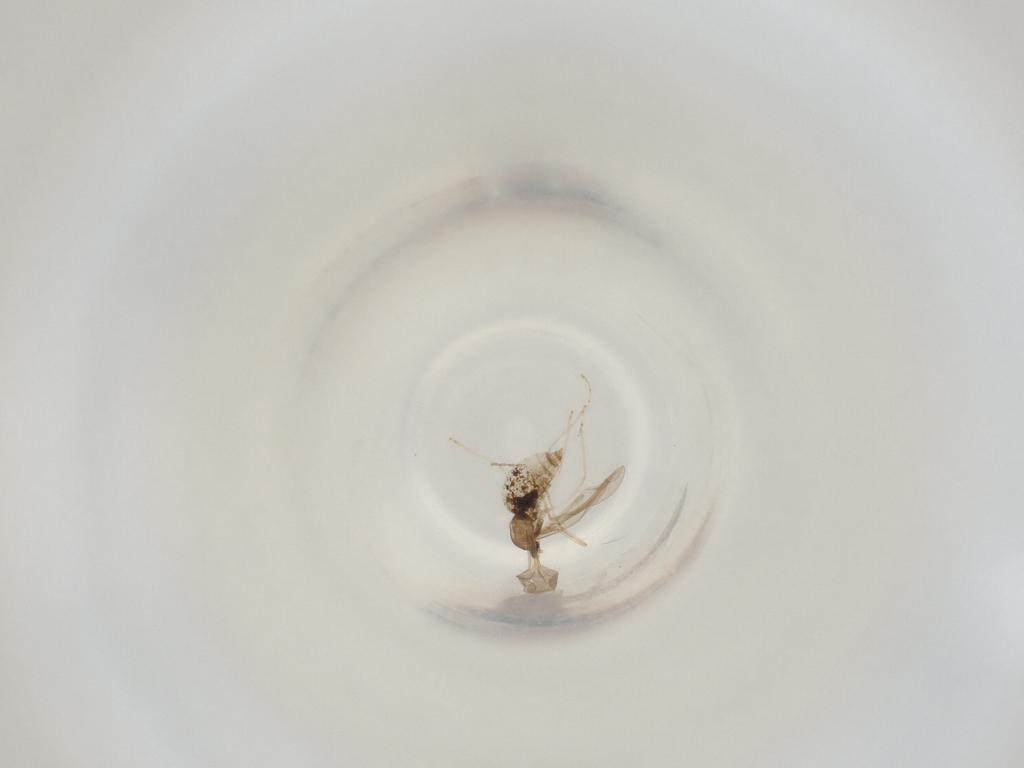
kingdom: Animalia
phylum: Arthropoda
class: Insecta
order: Diptera
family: Cecidomyiidae
